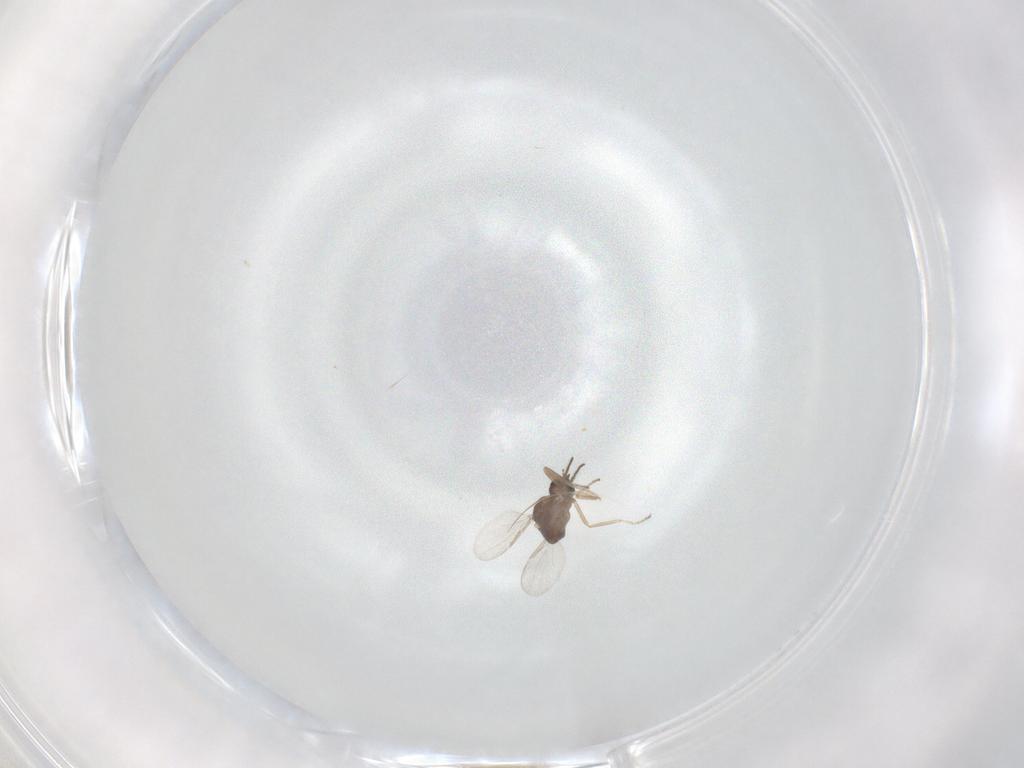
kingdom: Animalia
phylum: Arthropoda
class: Insecta
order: Diptera
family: Ceratopogonidae
